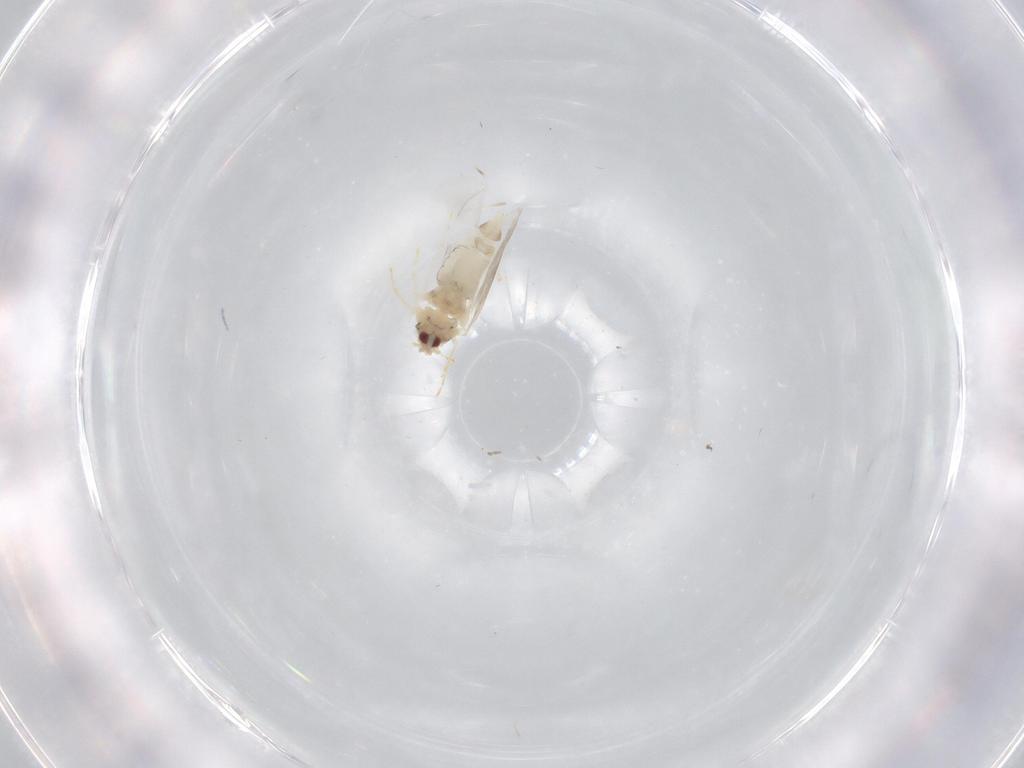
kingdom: Animalia
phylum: Arthropoda
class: Insecta
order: Hemiptera
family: Aleyrodidae
